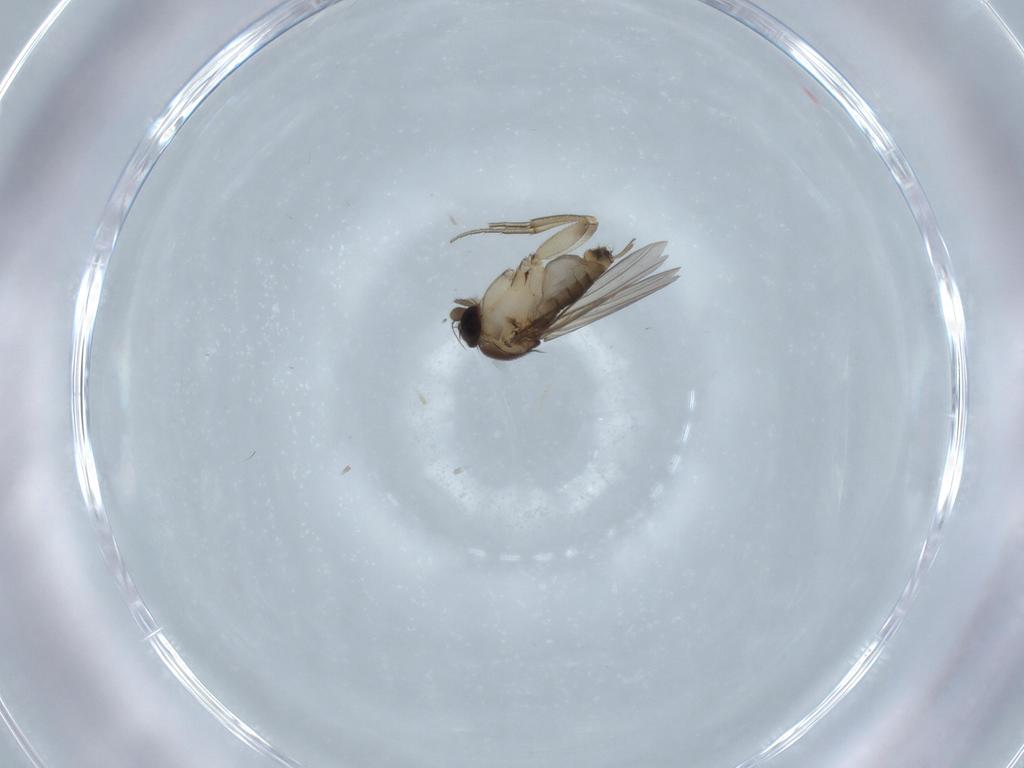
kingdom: Animalia
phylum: Arthropoda
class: Insecta
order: Diptera
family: Phoridae
